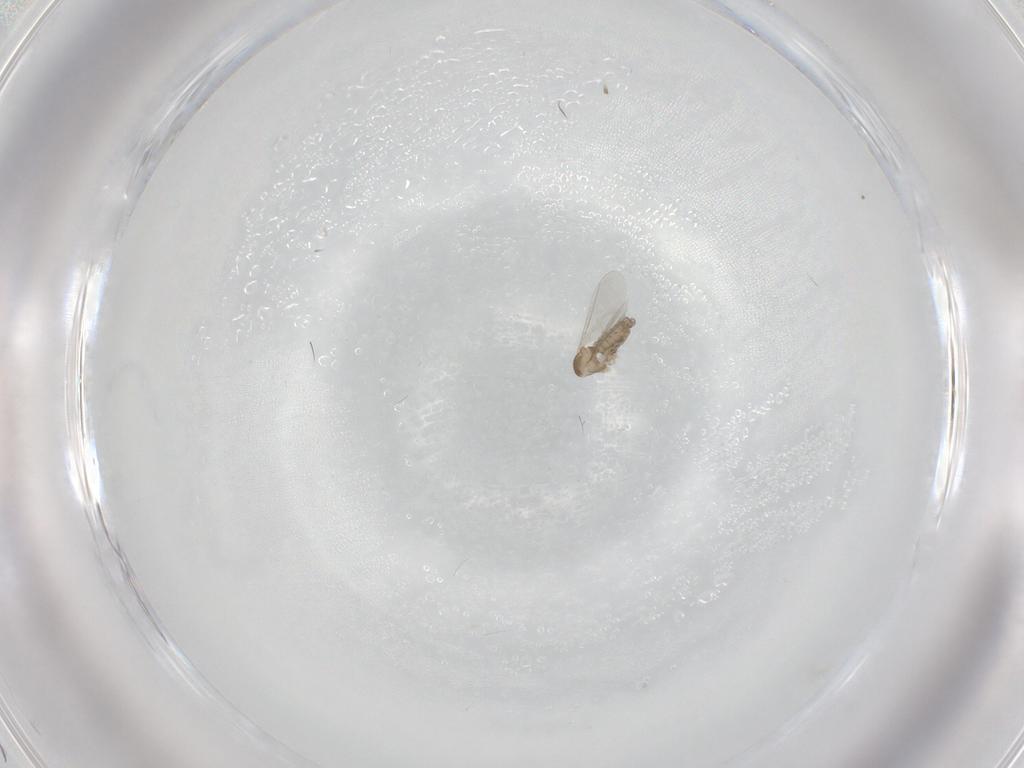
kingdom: Animalia
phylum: Arthropoda
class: Insecta
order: Diptera
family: Cecidomyiidae
